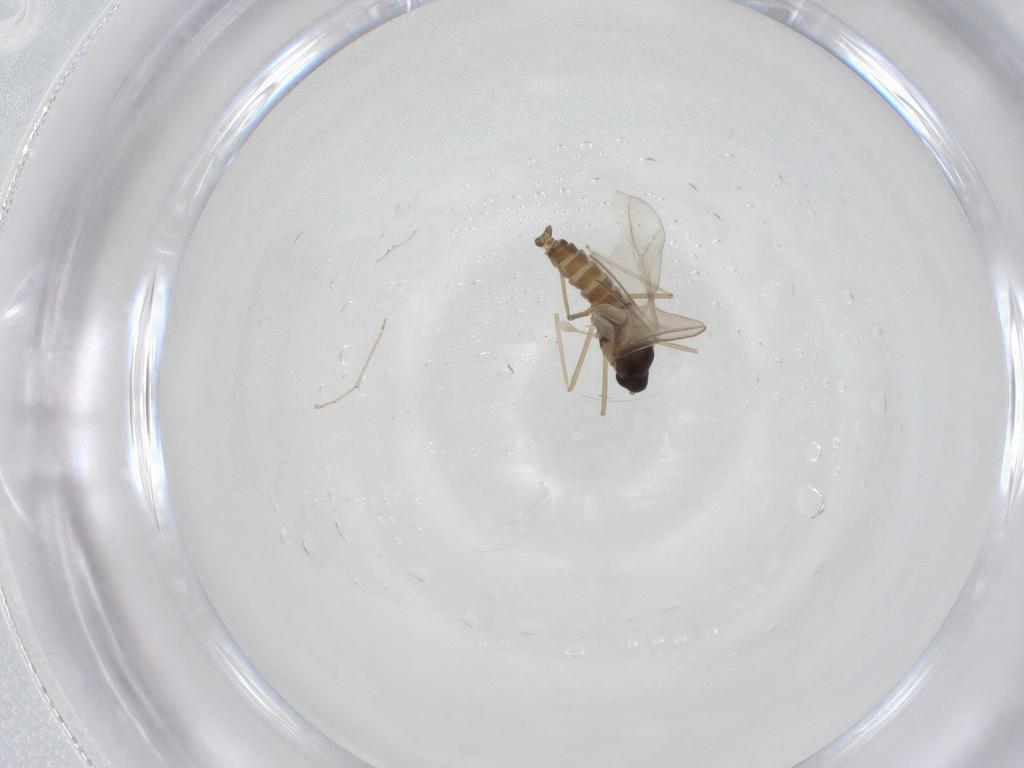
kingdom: Animalia
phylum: Arthropoda
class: Insecta
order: Diptera
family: Cecidomyiidae
